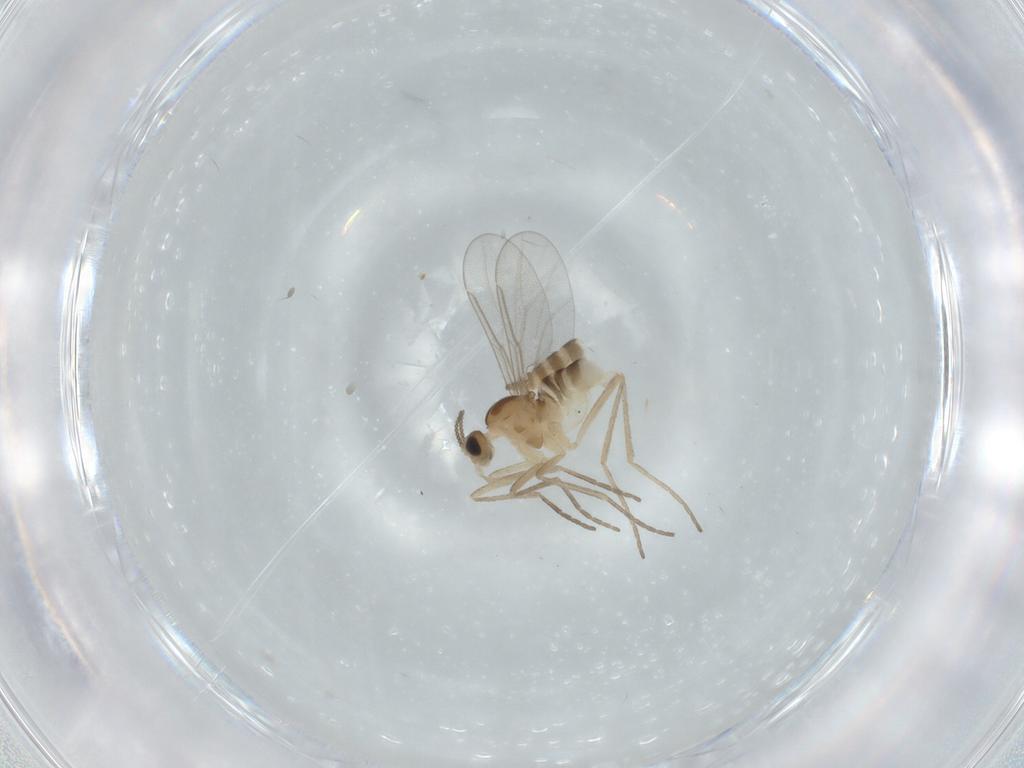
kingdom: Animalia
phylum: Arthropoda
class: Insecta
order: Diptera
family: Cecidomyiidae
